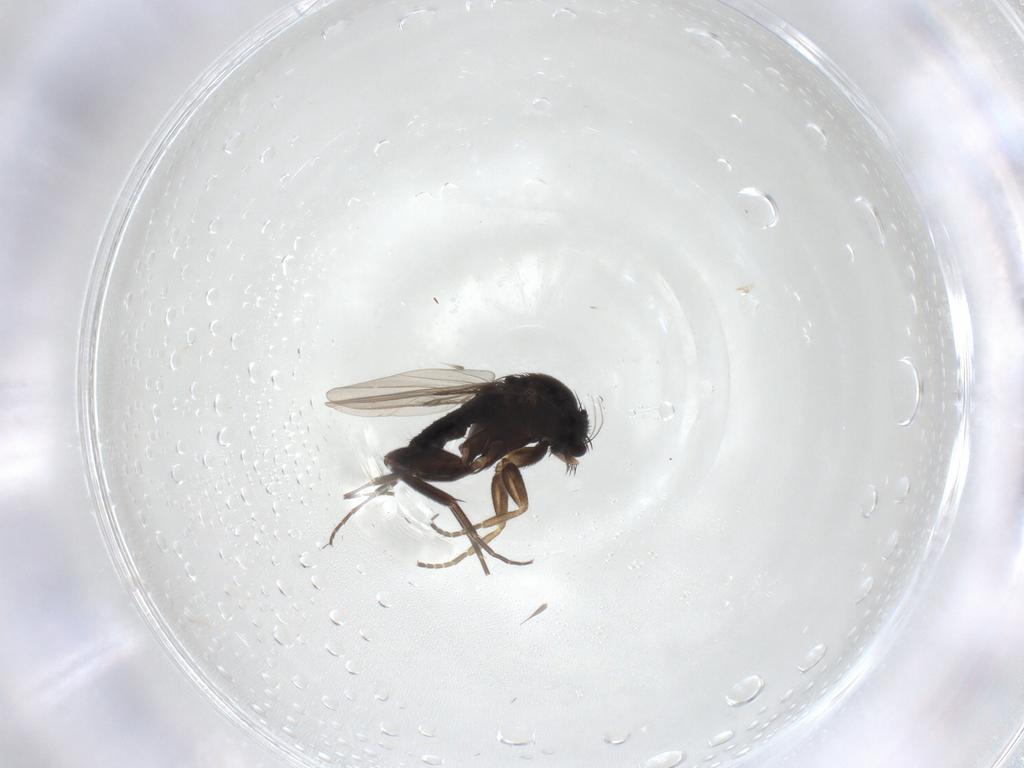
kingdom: Animalia
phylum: Arthropoda
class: Insecta
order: Diptera
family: Phoridae
